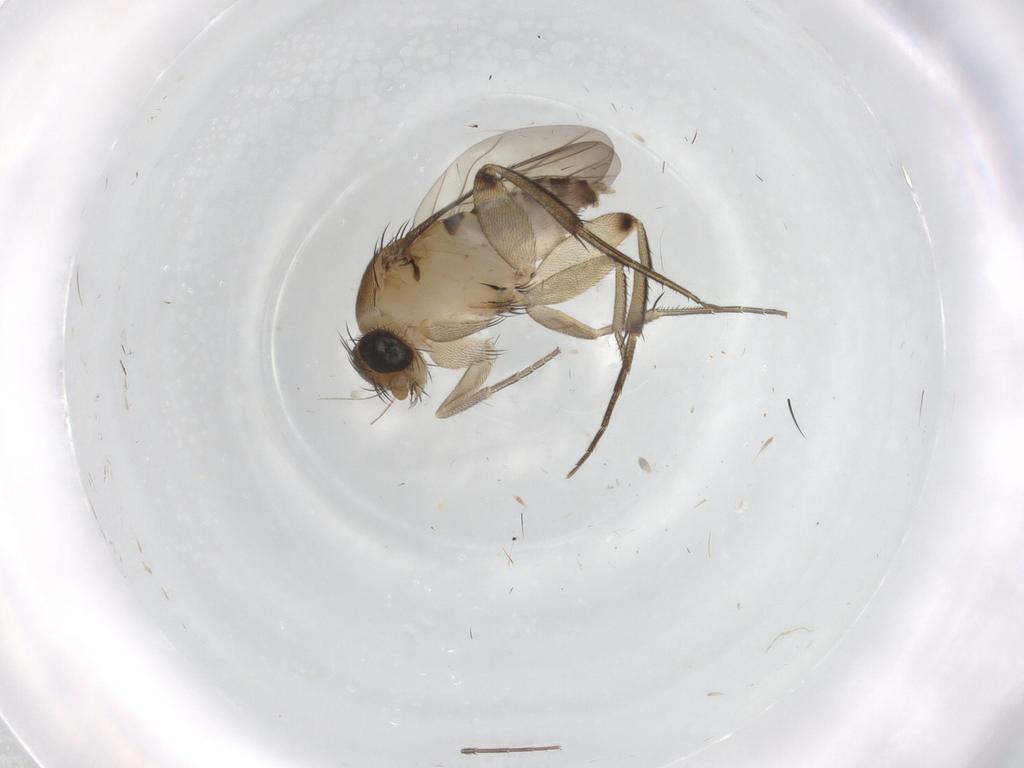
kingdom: Animalia
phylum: Arthropoda
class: Insecta
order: Diptera
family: Phoridae
